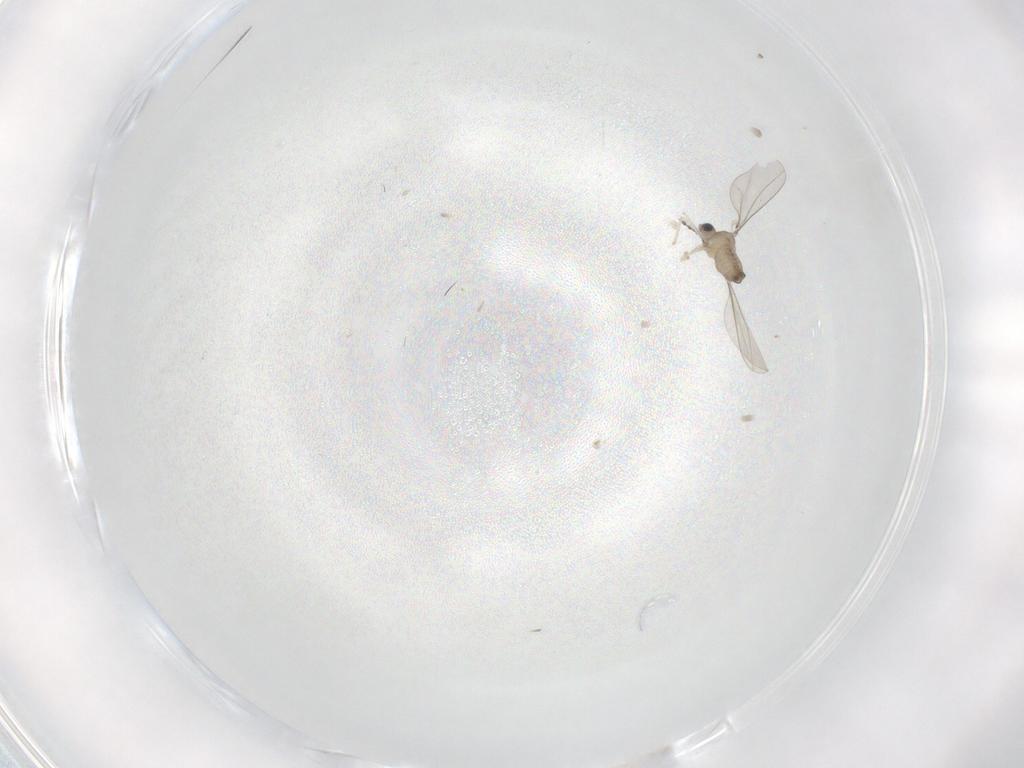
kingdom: Animalia
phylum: Arthropoda
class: Insecta
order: Diptera
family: Cecidomyiidae
